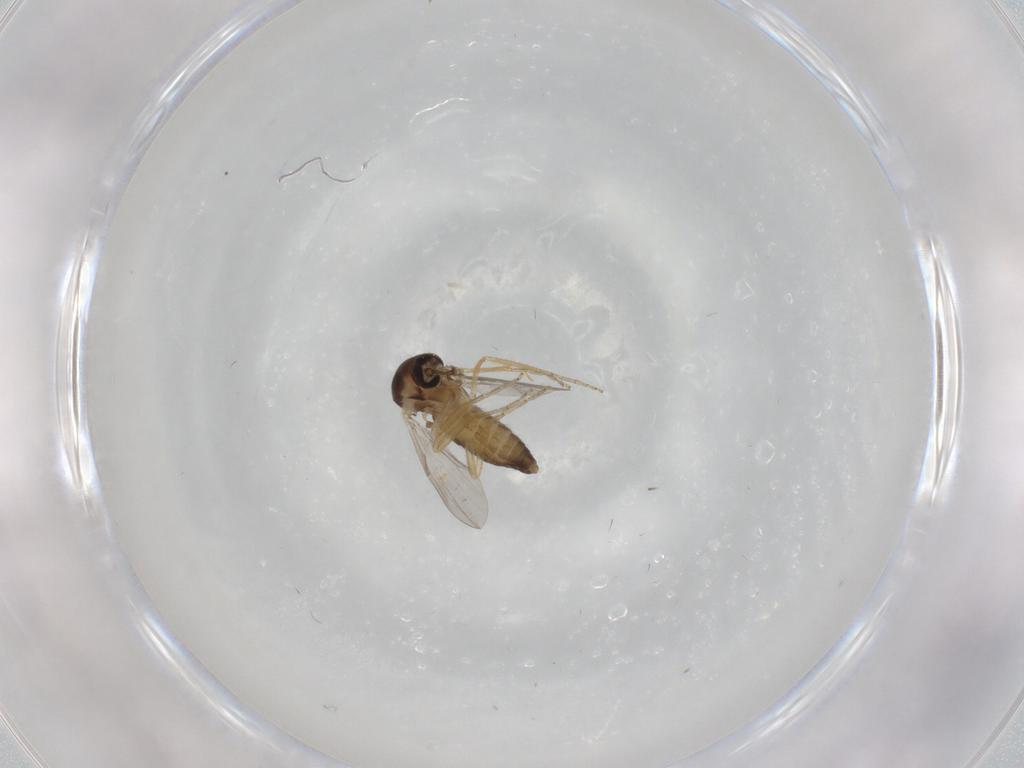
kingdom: Animalia
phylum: Arthropoda
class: Insecta
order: Diptera
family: Ceratopogonidae
